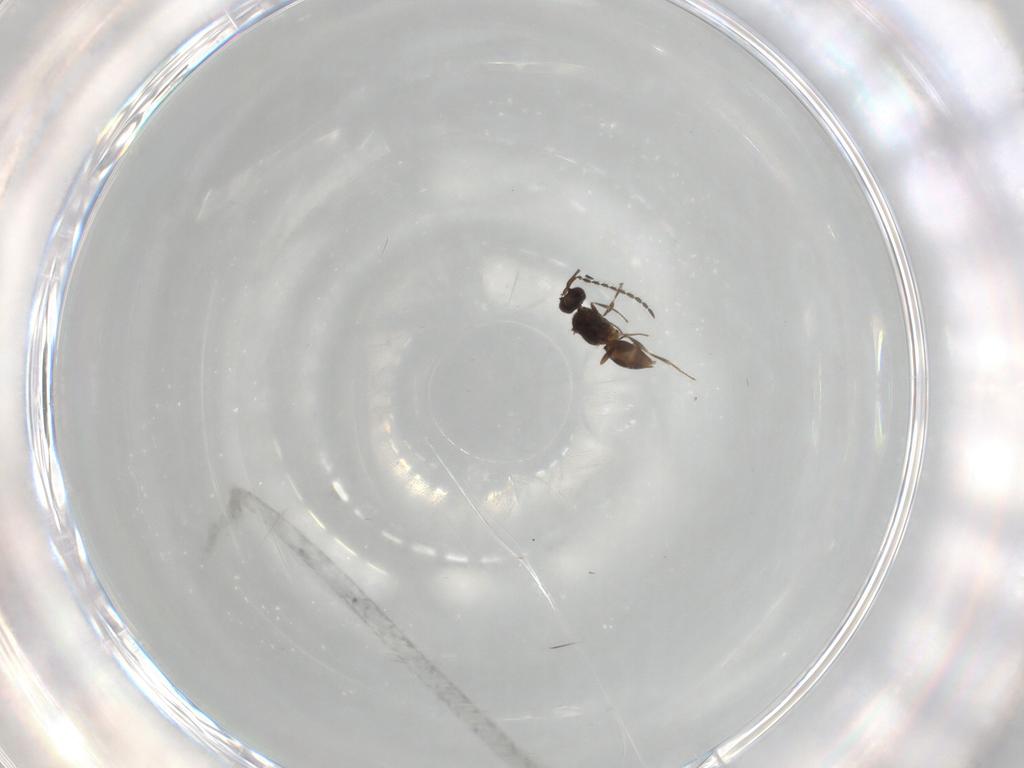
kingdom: Animalia
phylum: Arthropoda
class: Insecta
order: Hymenoptera
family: Ceraphronidae
